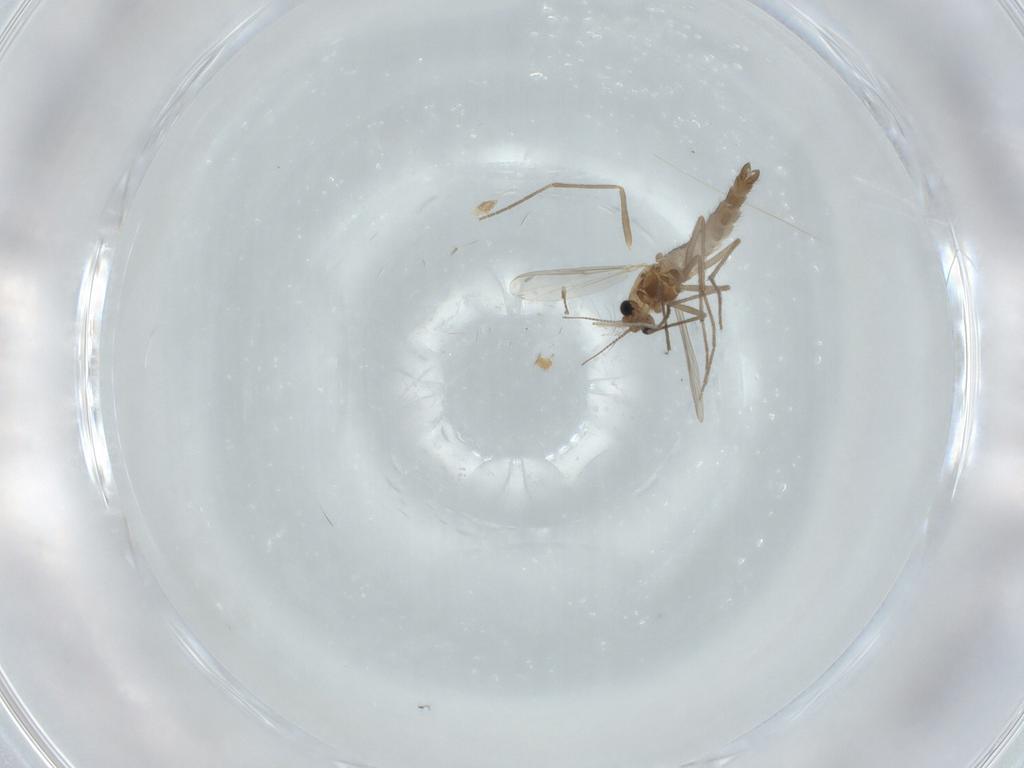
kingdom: Animalia
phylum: Arthropoda
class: Insecta
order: Diptera
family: Chironomidae
